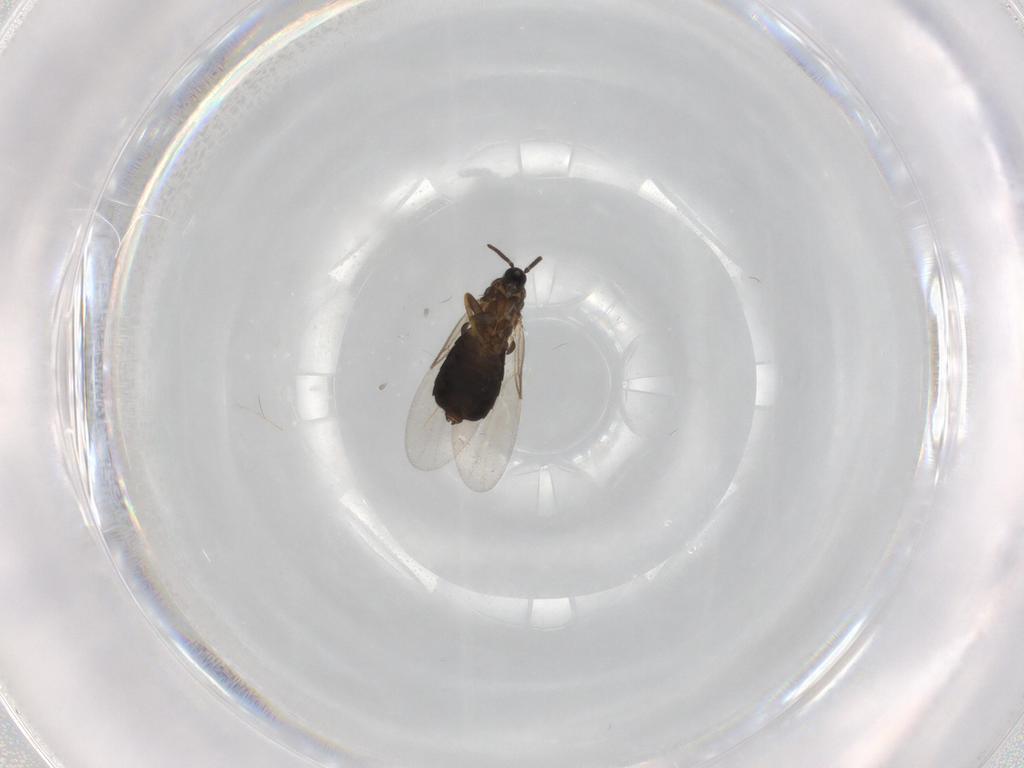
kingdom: Animalia
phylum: Arthropoda
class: Insecta
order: Diptera
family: Scatopsidae
